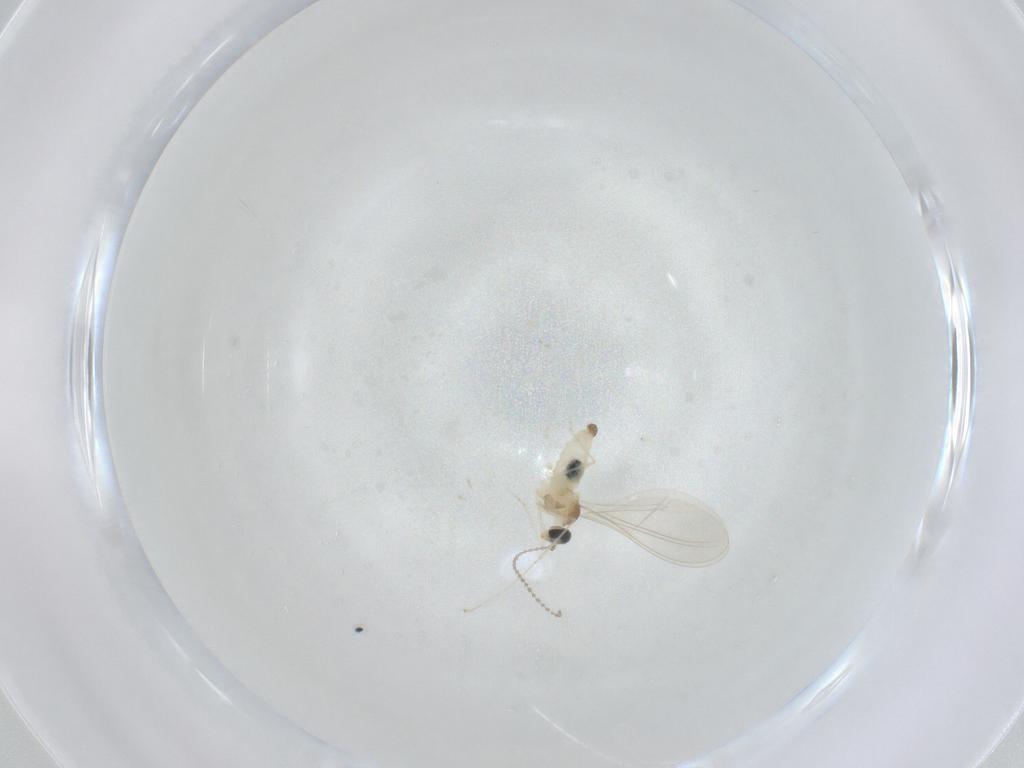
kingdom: Animalia
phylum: Arthropoda
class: Insecta
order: Diptera
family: Cecidomyiidae
